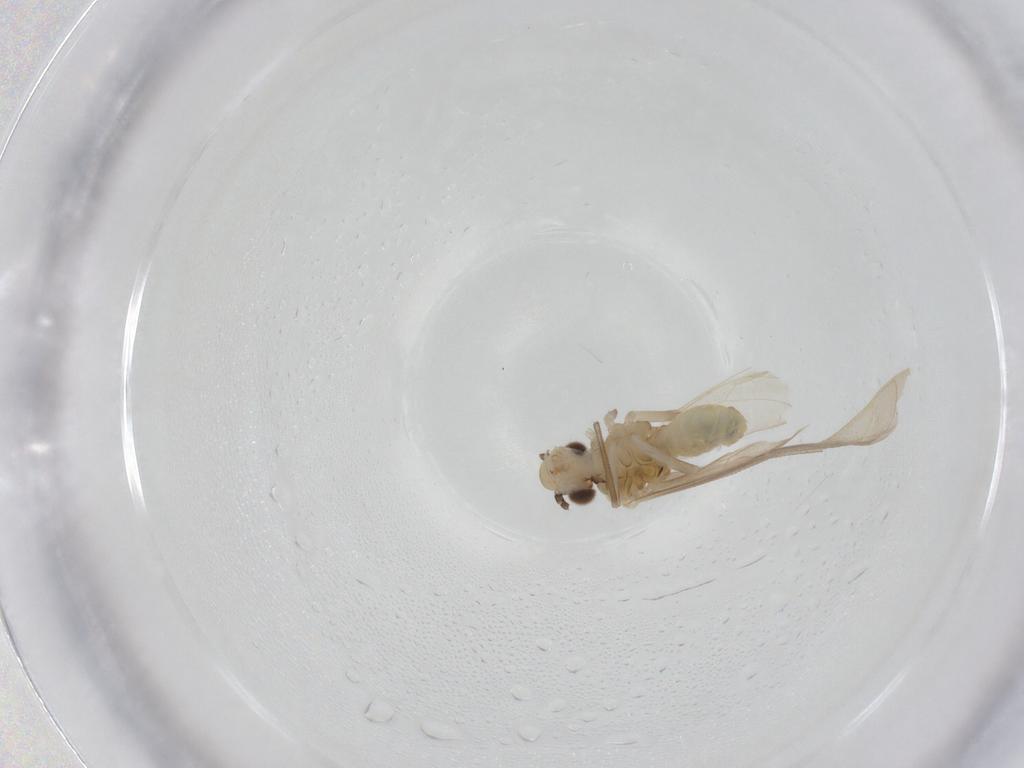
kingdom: Animalia
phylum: Arthropoda
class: Insecta
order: Psocodea
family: Caeciliusidae
